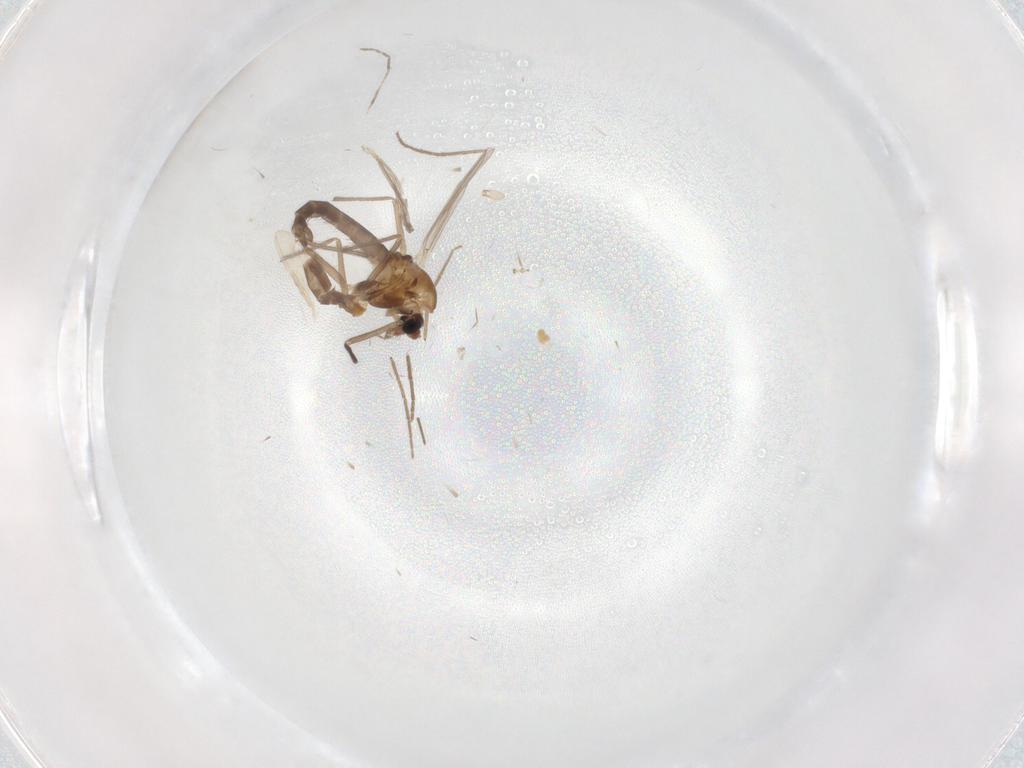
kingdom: Animalia
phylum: Arthropoda
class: Insecta
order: Diptera
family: Chironomidae
